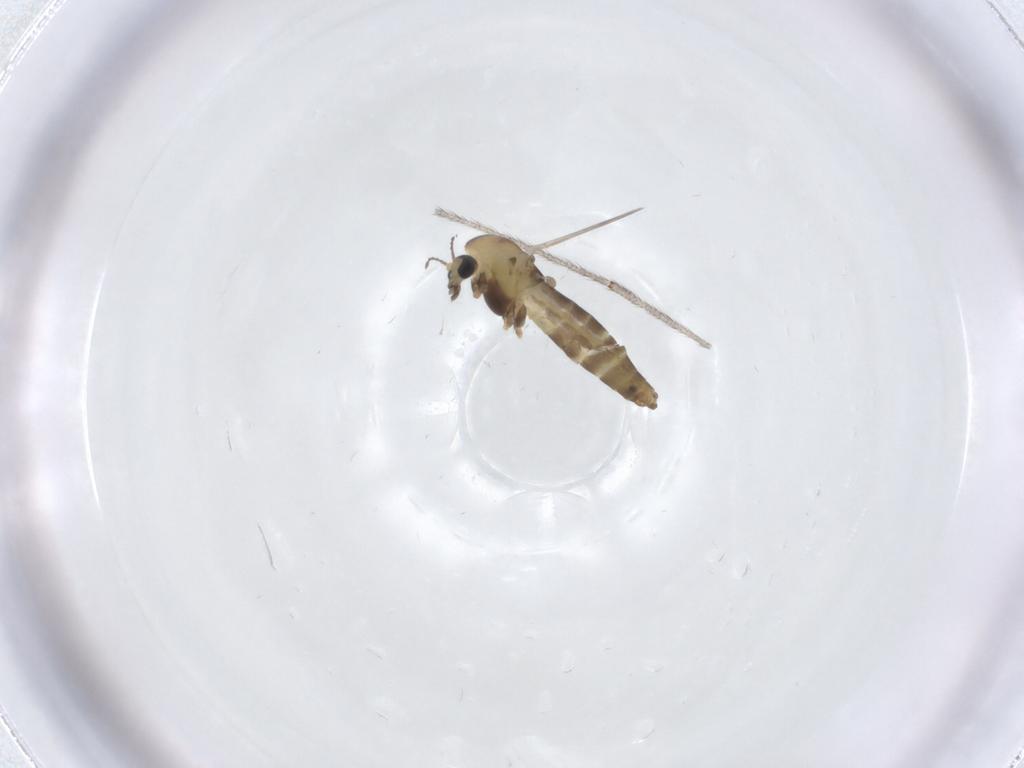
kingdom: Animalia
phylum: Arthropoda
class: Insecta
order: Diptera
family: Chironomidae
